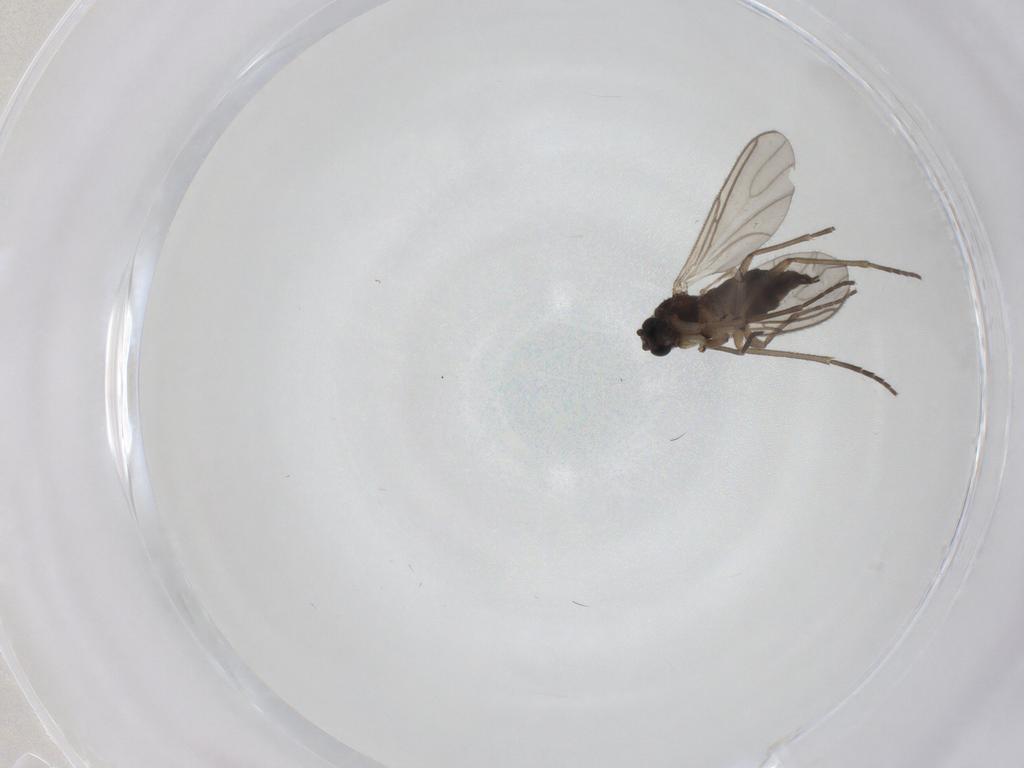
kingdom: Animalia
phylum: Arthropoda
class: Insecta
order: Diptera
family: Sciaridae
